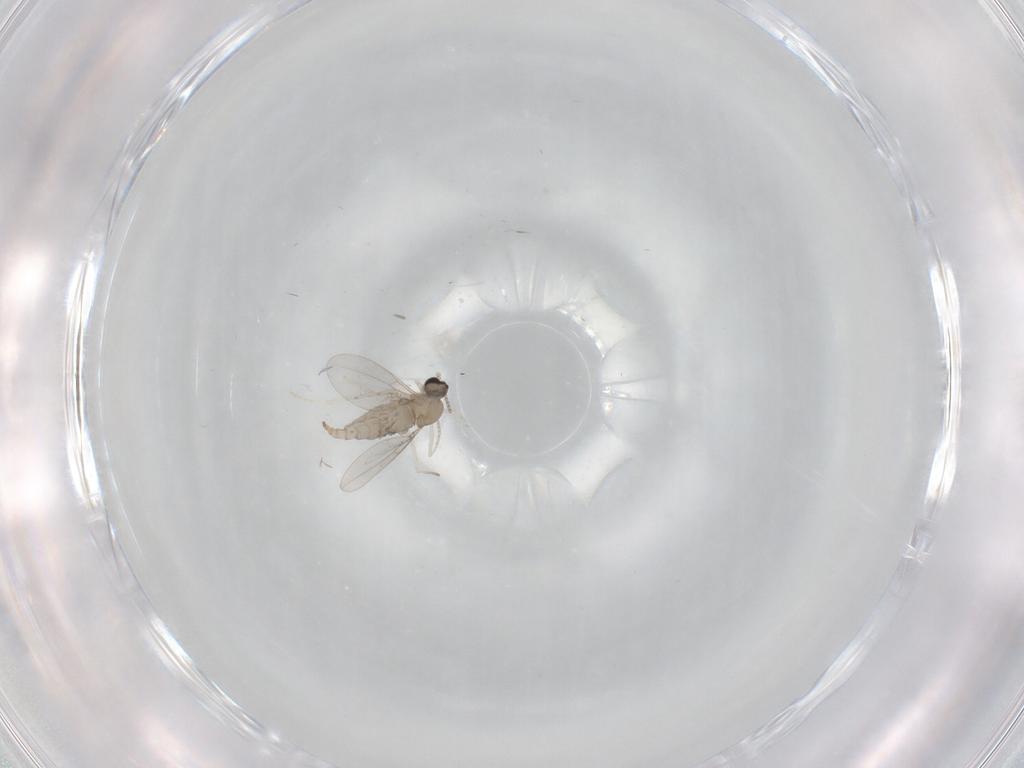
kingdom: Animalia
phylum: Arthropoda
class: Insecta
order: Diptera
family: Cecidomyiidae
